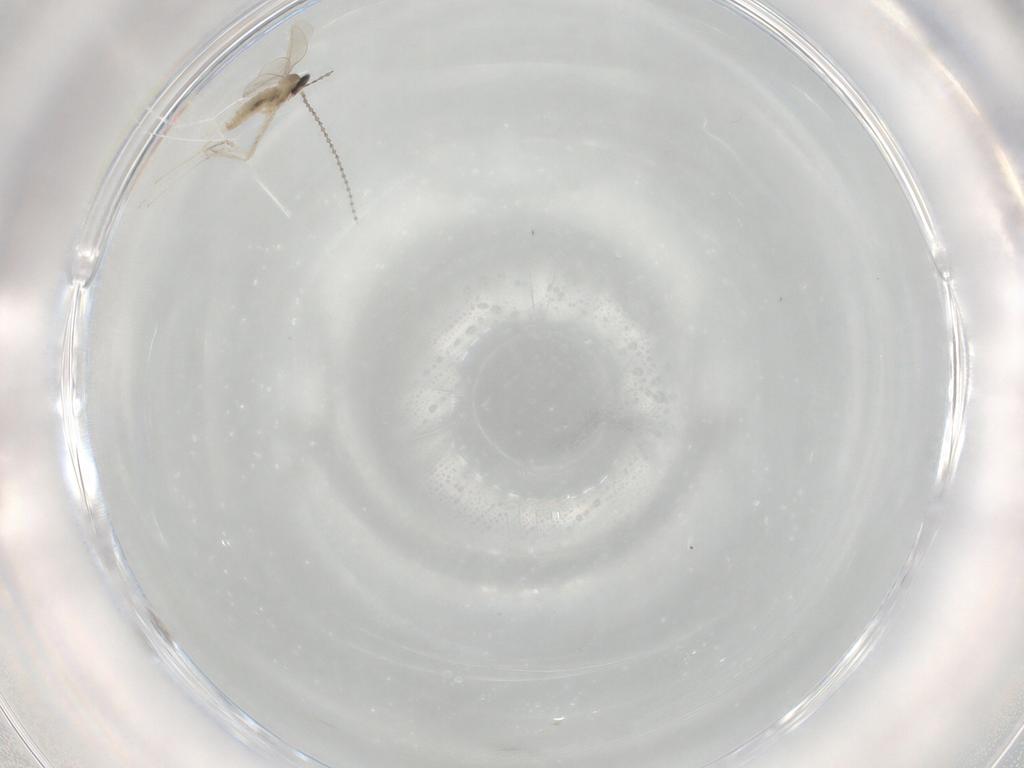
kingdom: Animalia
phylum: Arthropoda
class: Insecta
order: Diptera
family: Cecidomyiidae
